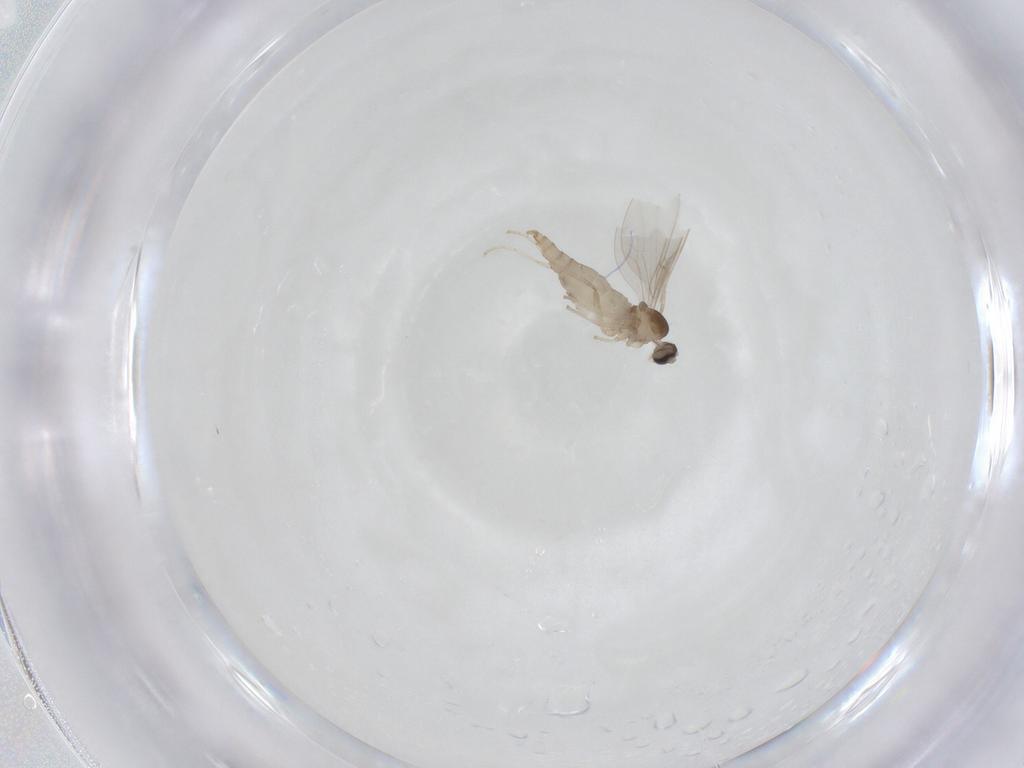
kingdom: Animalia
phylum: Arthropoda
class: Insecta
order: Diptera
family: Cecidomyiidae
